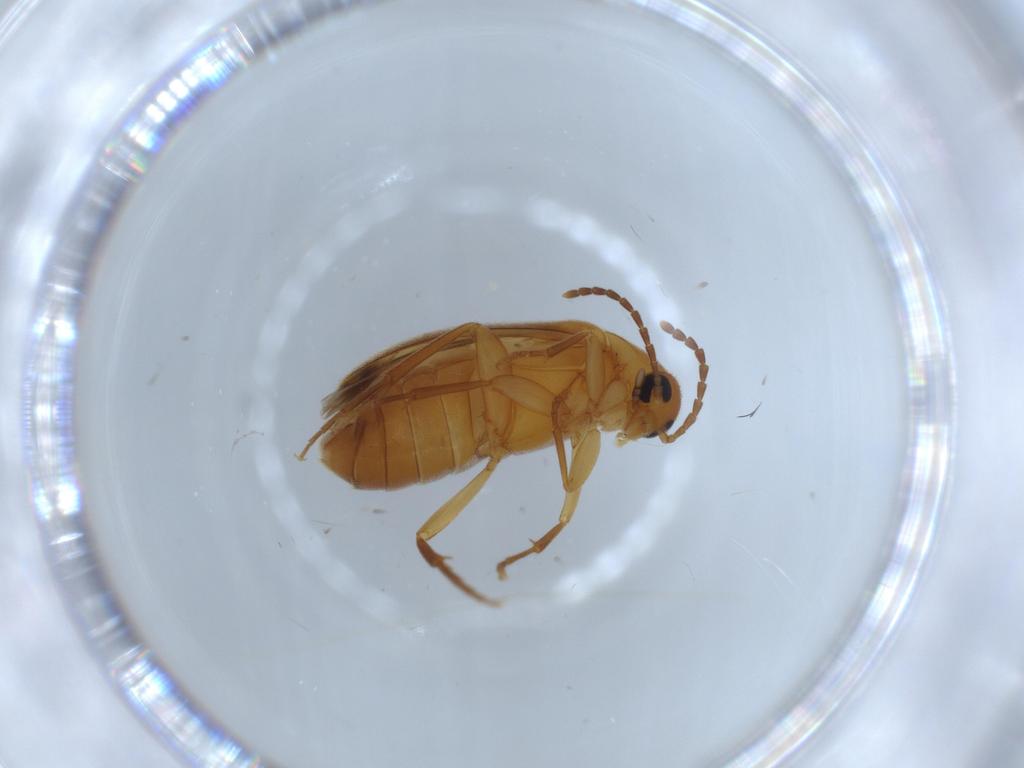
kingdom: Animalia
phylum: Arthropoda
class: Insecta
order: Coleoptera
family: Scraptiidae
